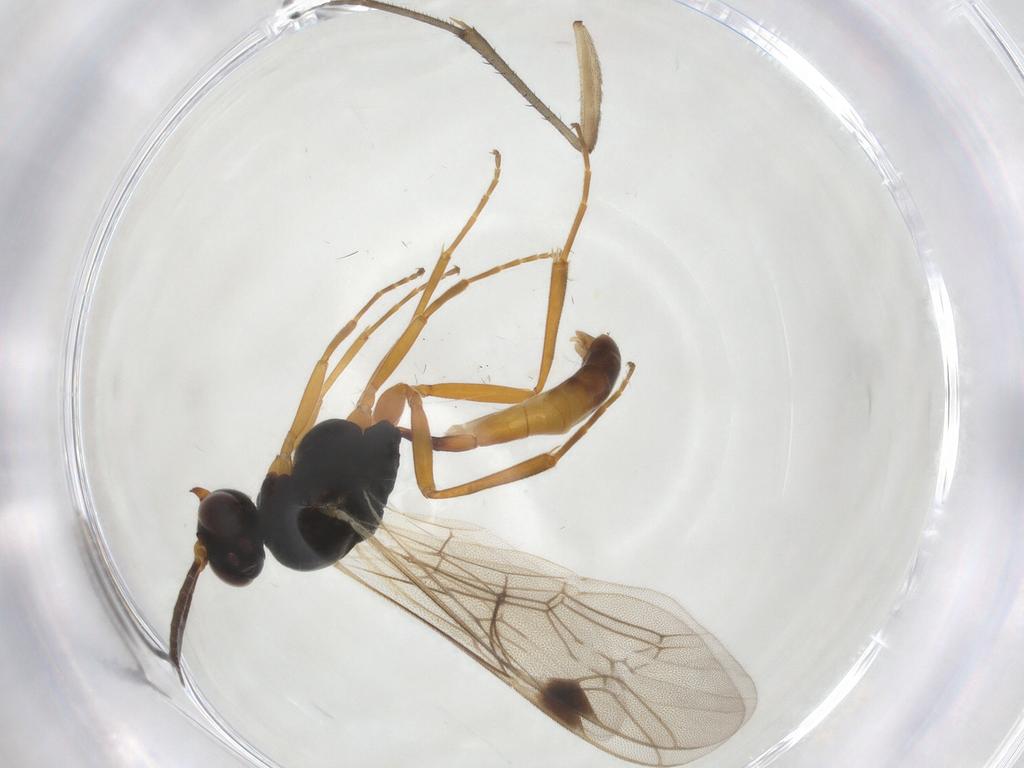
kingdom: Animalia
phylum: Arthropoda
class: Insecta
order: Hymenoptera
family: Ichneumonidae
